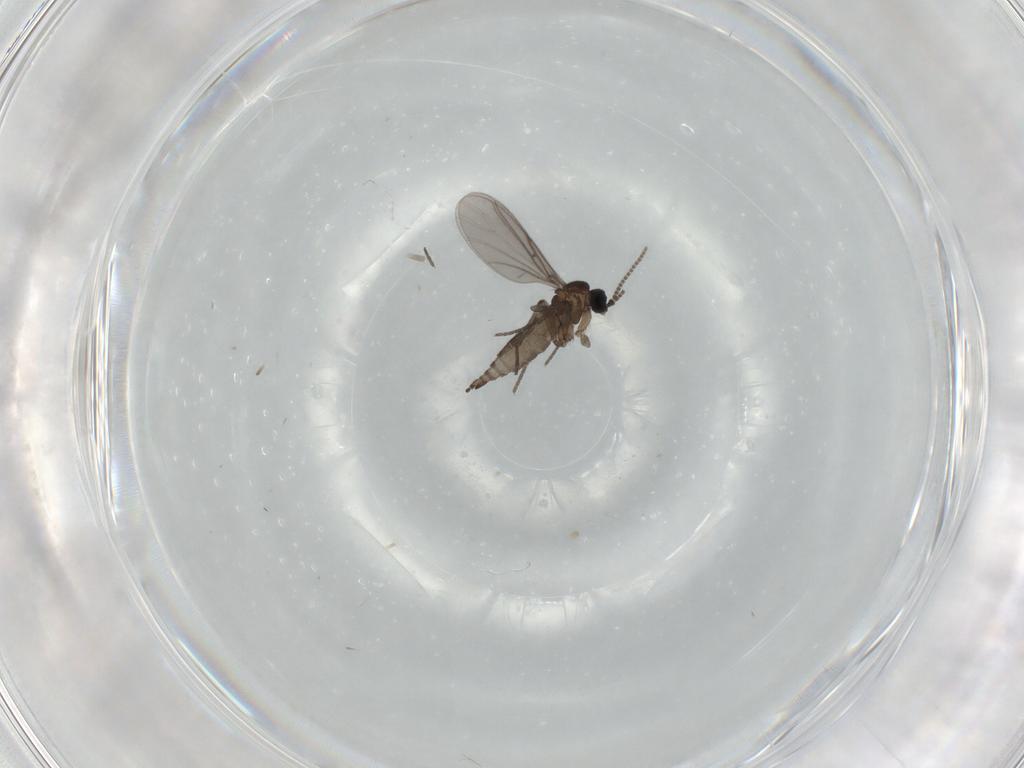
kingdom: Animalia
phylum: Arthropoda
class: Insecta
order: Diptera
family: Sciaridae
